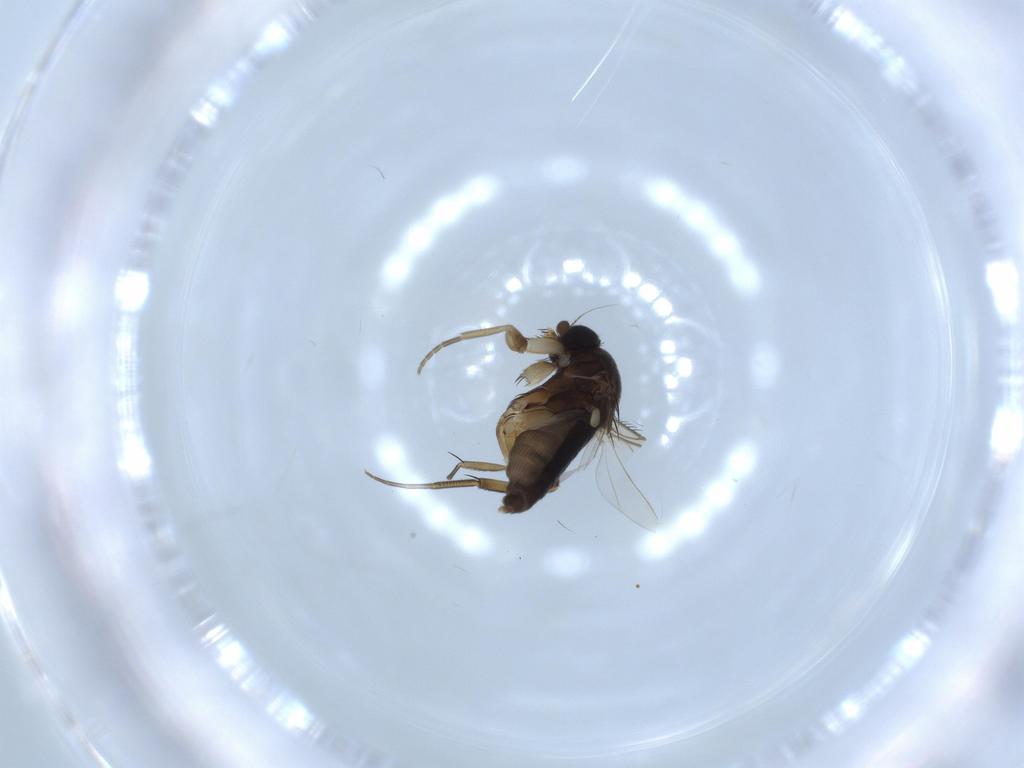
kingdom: Animalia
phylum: Arthropoda
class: Insecta
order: Diptera
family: Phoridae
